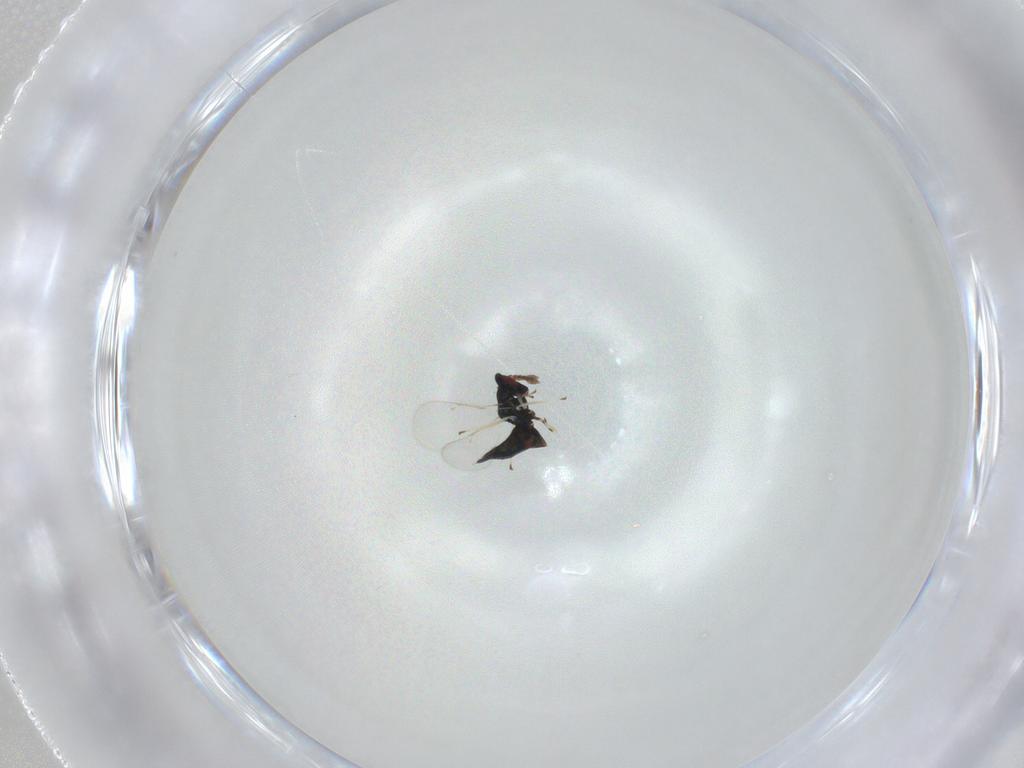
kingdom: Animalia
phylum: Arthropoda
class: Insecta
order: Hymenoptera
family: Eulophidae
